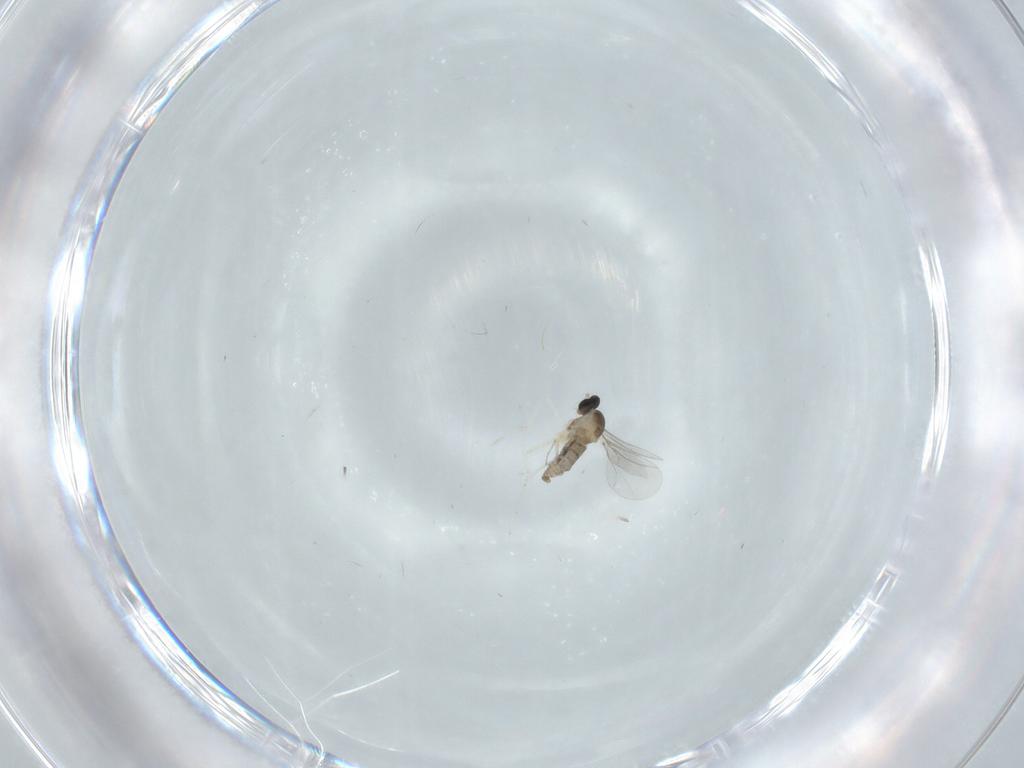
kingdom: Animalia
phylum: Arthropoda
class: Insecta
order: Diptera
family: Cecidomyiidae
